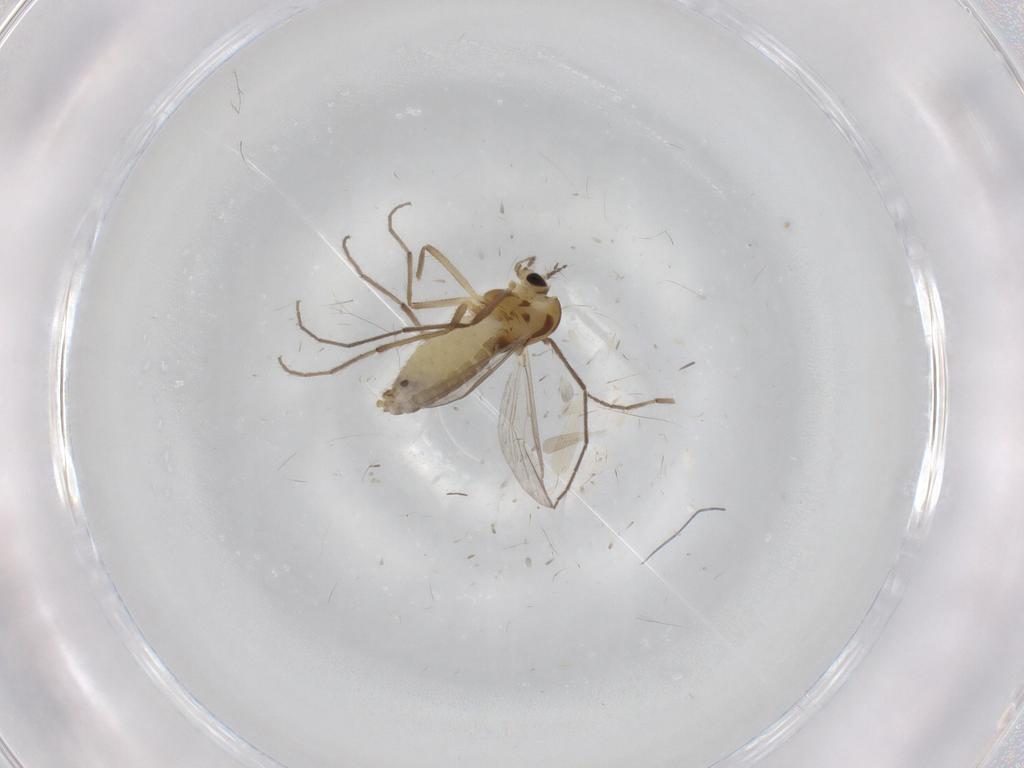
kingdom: Animalia
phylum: Arthropoda
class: Insecta
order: Diptera
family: Chironomidae
